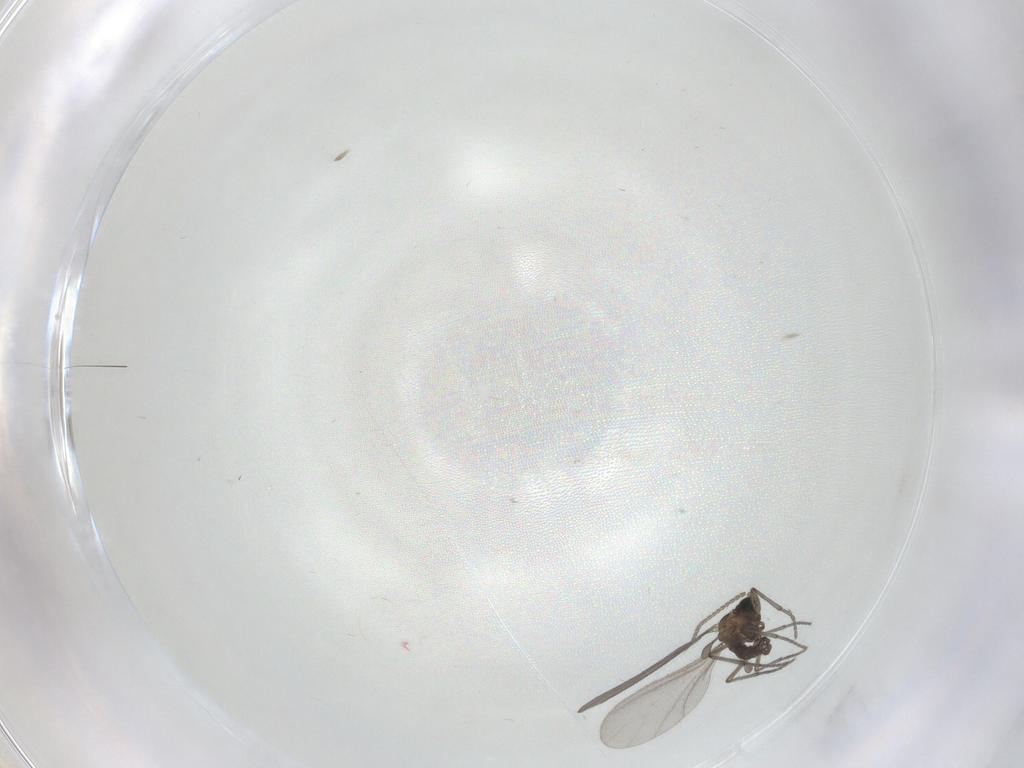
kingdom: Animalia
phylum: Arthropoda
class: Insecta
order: Diptera
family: Sciaridae
